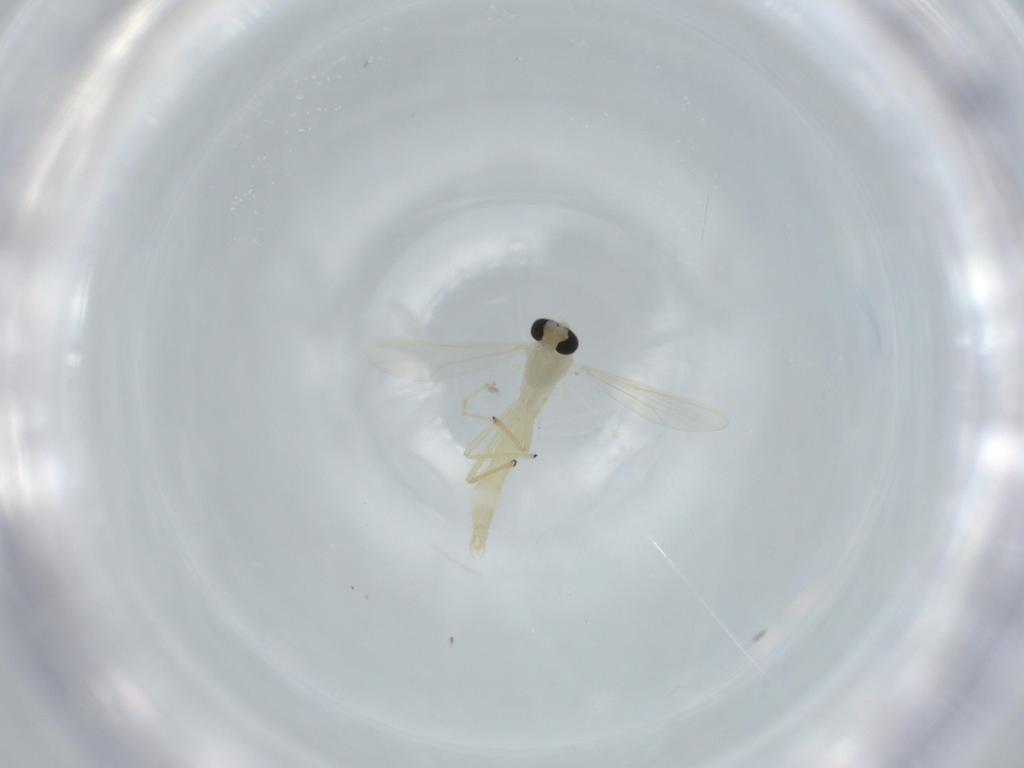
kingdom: Animalia
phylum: Arthropoda
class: Insecta
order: Diptera
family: Chironomidae
